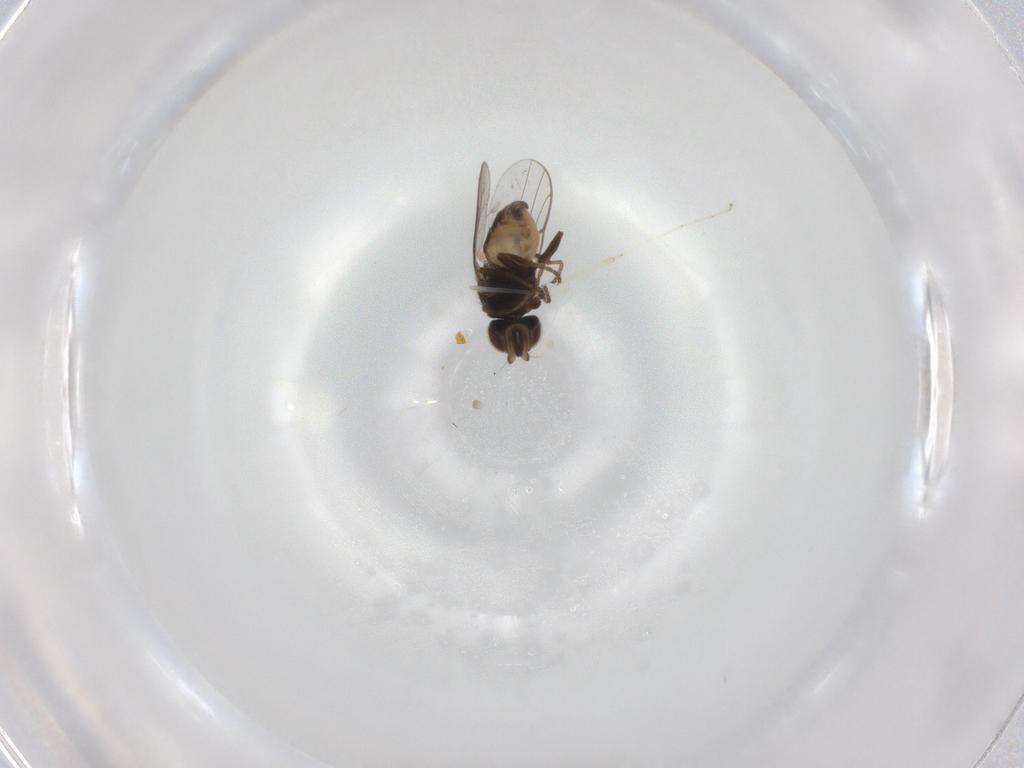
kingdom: Animalia
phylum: Arthropoda
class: Insecta
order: Diptera
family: Chloropidae
